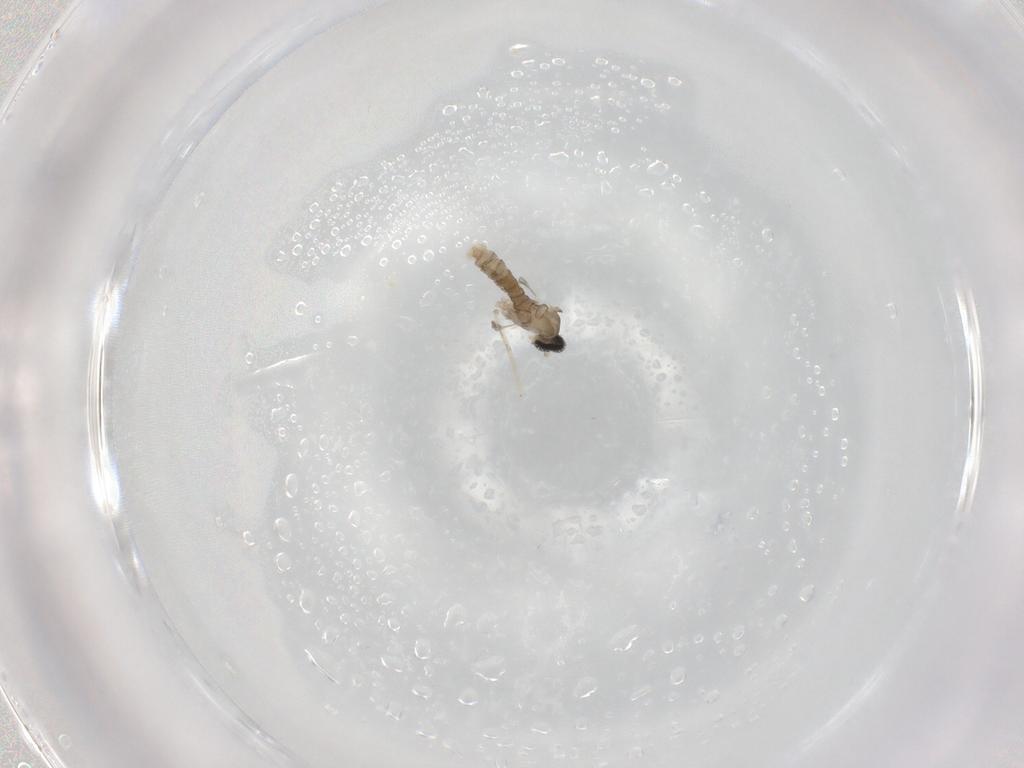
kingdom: Animalia
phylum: Arthropoda
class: Insecta
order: Diptera
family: Cecidomyiidae
